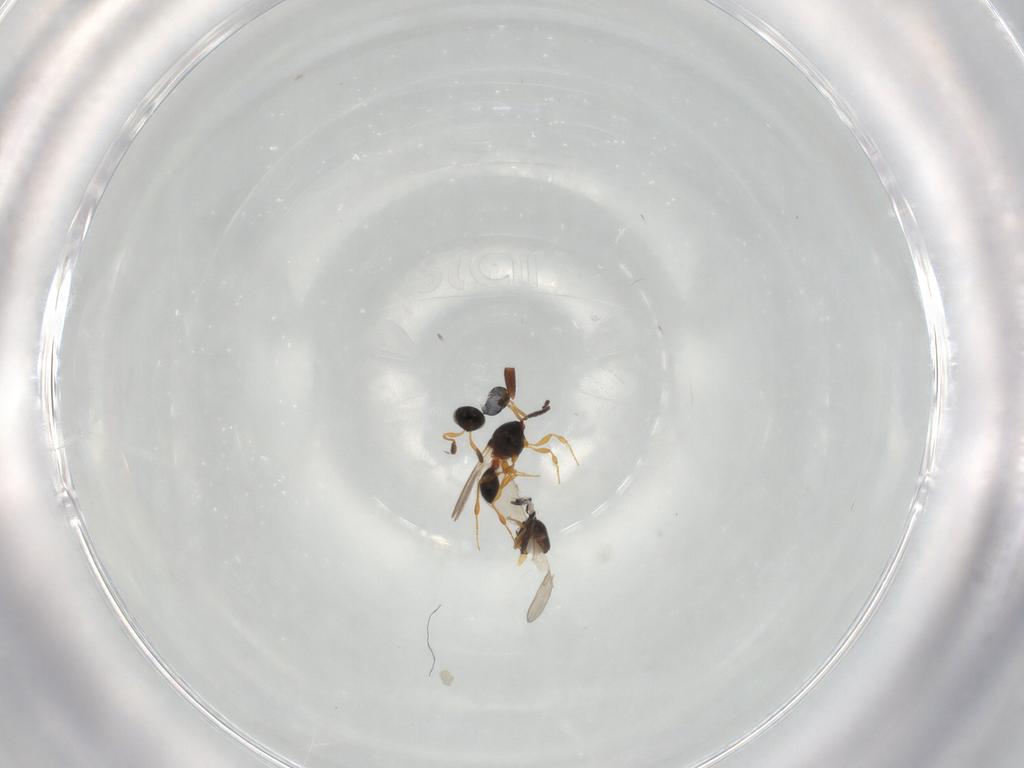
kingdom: Animalia
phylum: Arthropoda
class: Insecta
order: Hymenoptera
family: Scelionidae
